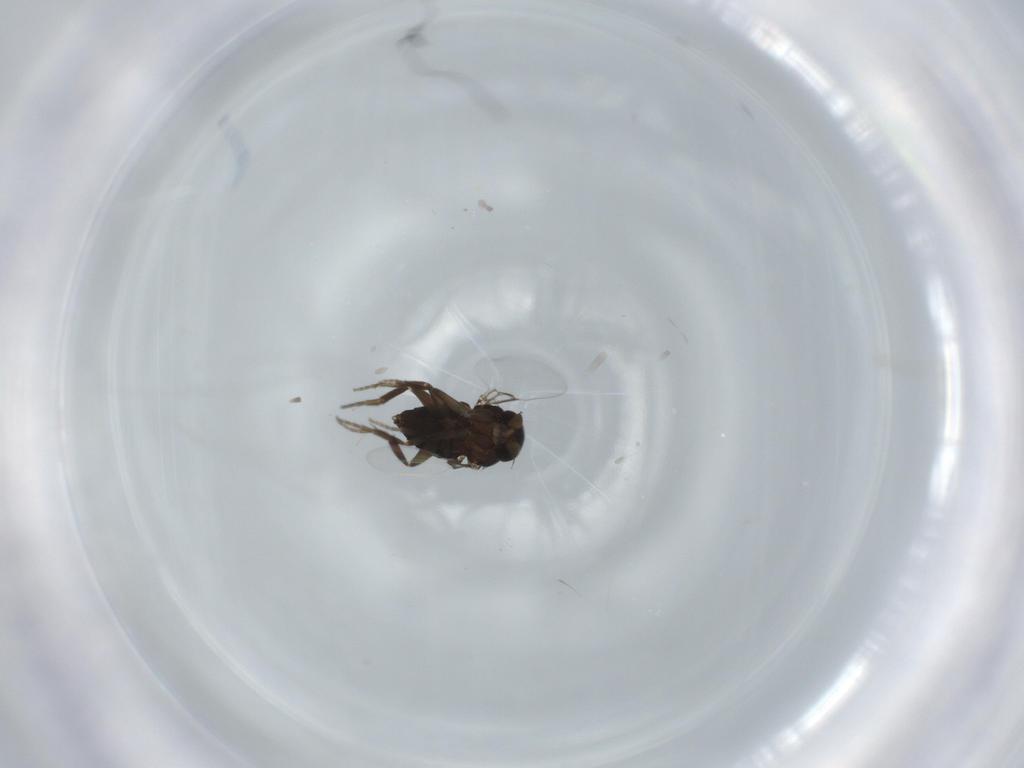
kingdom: Animalia
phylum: Arthropoda
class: Insecta
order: Diptera
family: Phoridae
